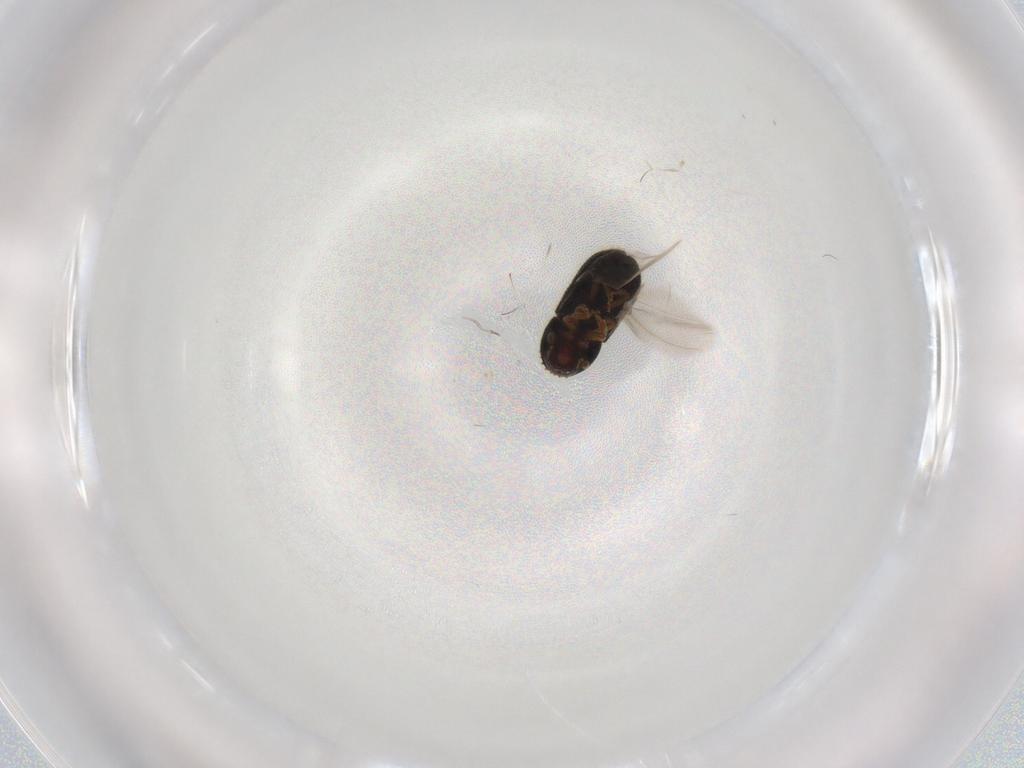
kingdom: Animalia
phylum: Arthropoda
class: Insecta
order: Coleoptera
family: Curculionidae
